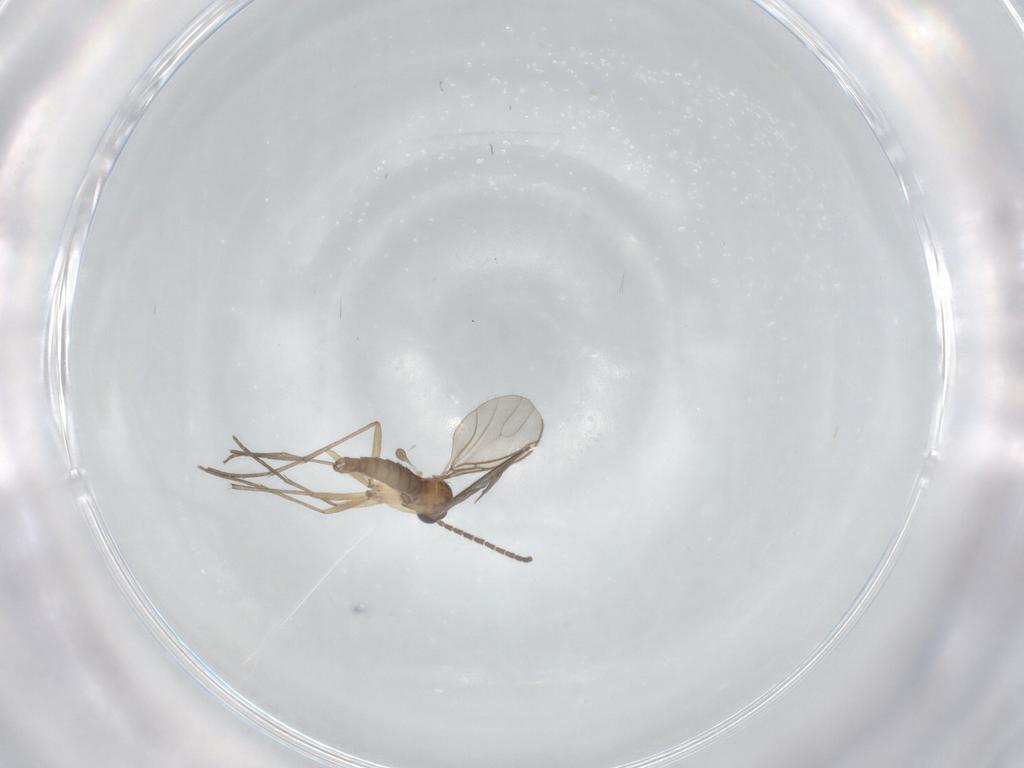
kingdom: Animalia
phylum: Arthropoda
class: Insecta
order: Diptera
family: Sciaridae
